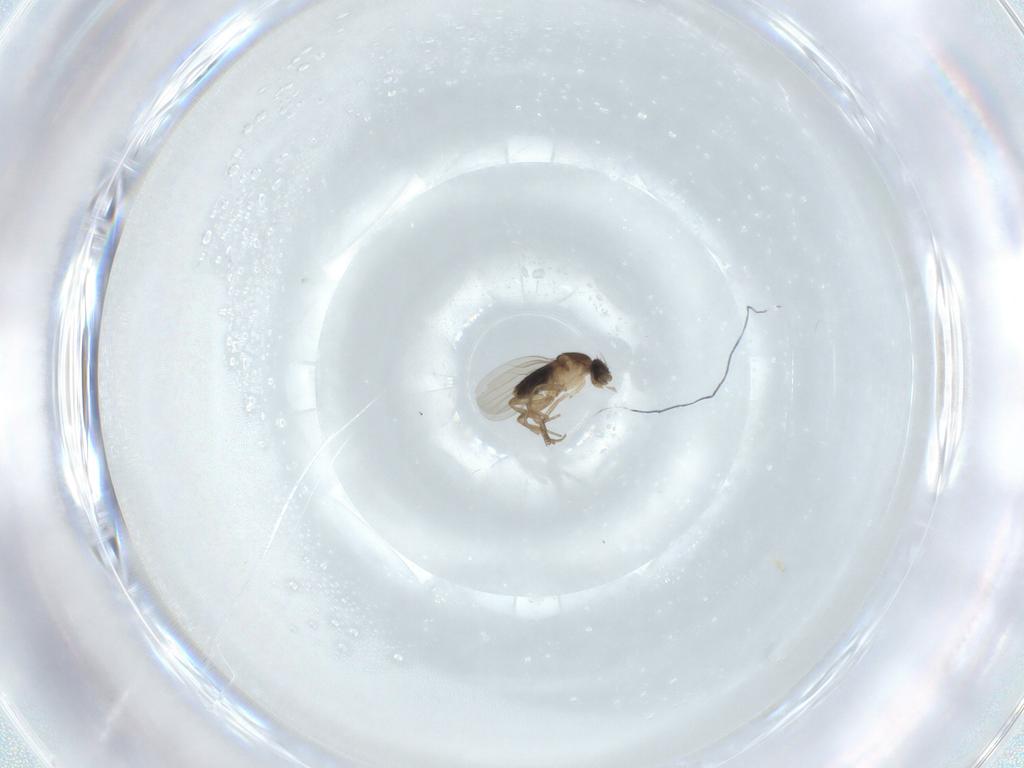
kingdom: Animalia
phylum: Arthropoda
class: Insecta
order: Diptera
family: Phoridae
